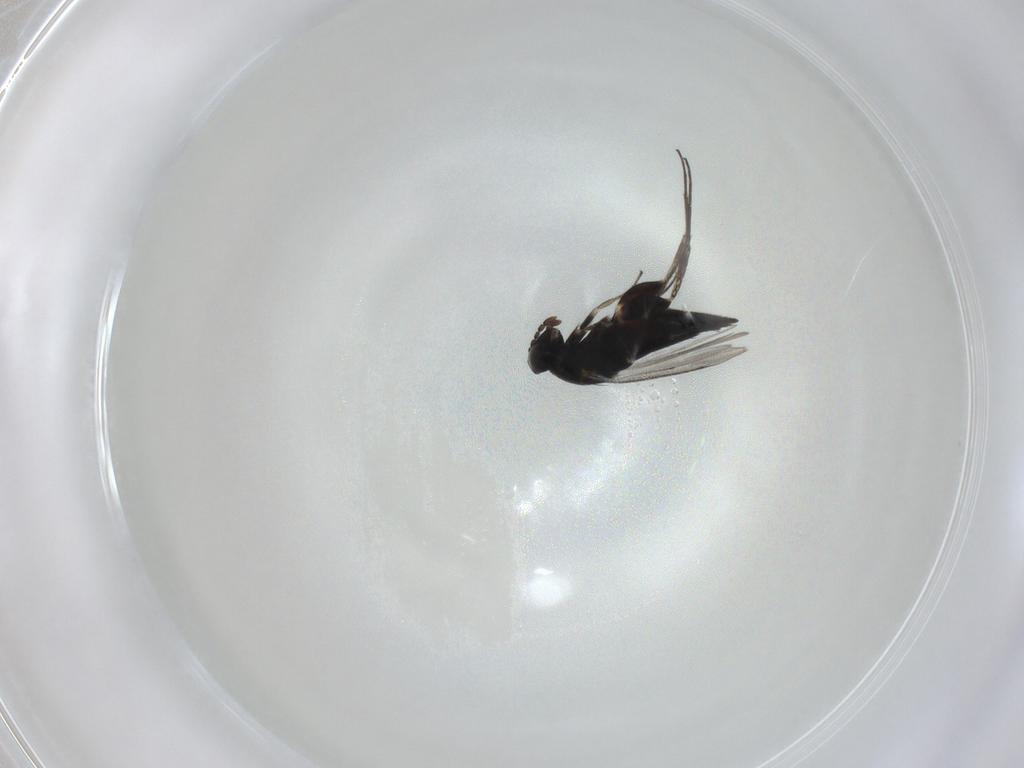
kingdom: Animalia
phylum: Arthropoda
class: Insecta
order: Hymenoptera
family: Eulophidae
